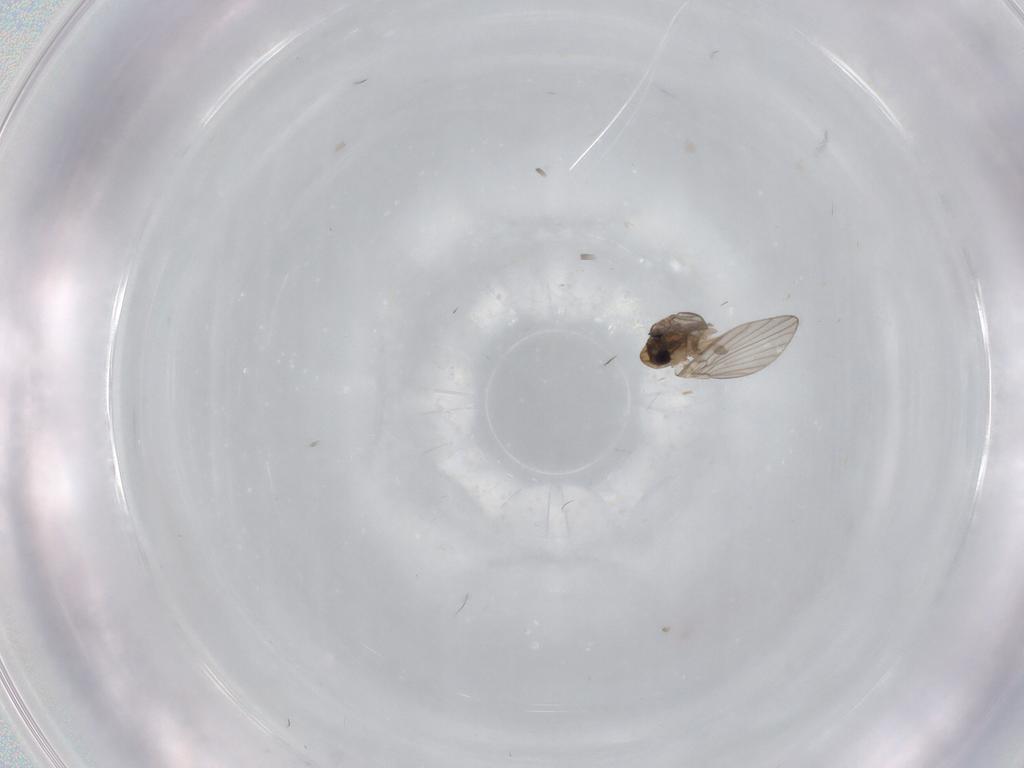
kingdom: Animalia
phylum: Arthropoda
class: Insecta
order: Diptera
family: Psychodidae
